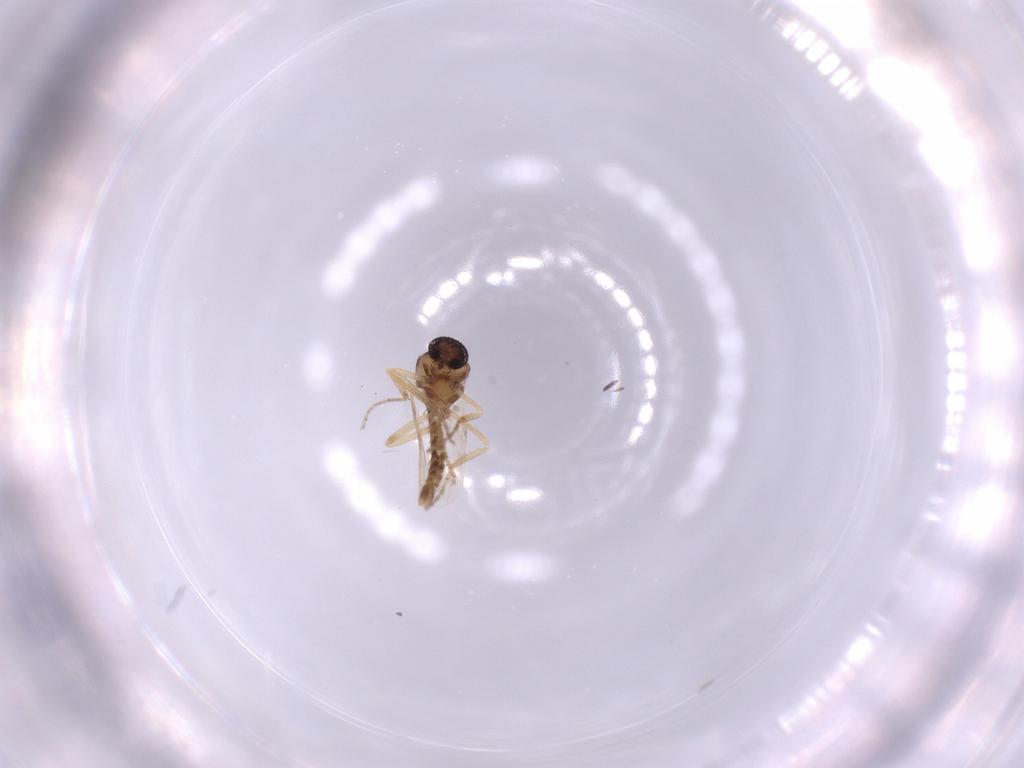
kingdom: Animalia
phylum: Arthropoda
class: Insecta
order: Diptera
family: Ceratopogonidae
